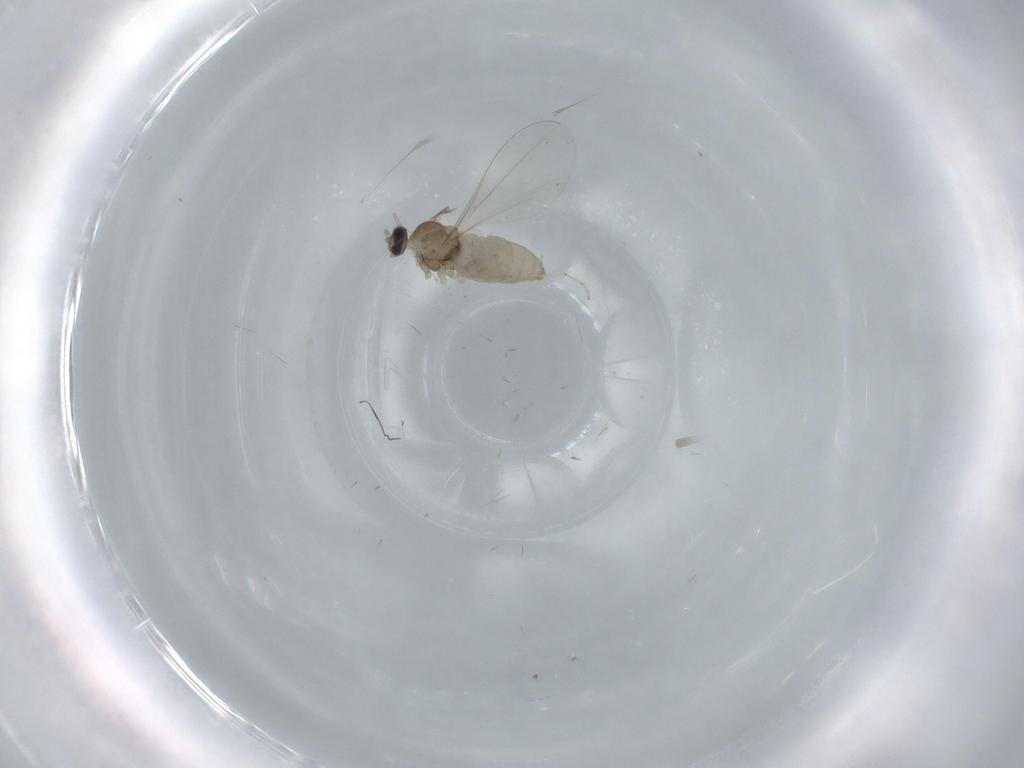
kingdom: Animalia
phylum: Arthropoda
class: Insecta
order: Diptera
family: Cecidomyiidae
